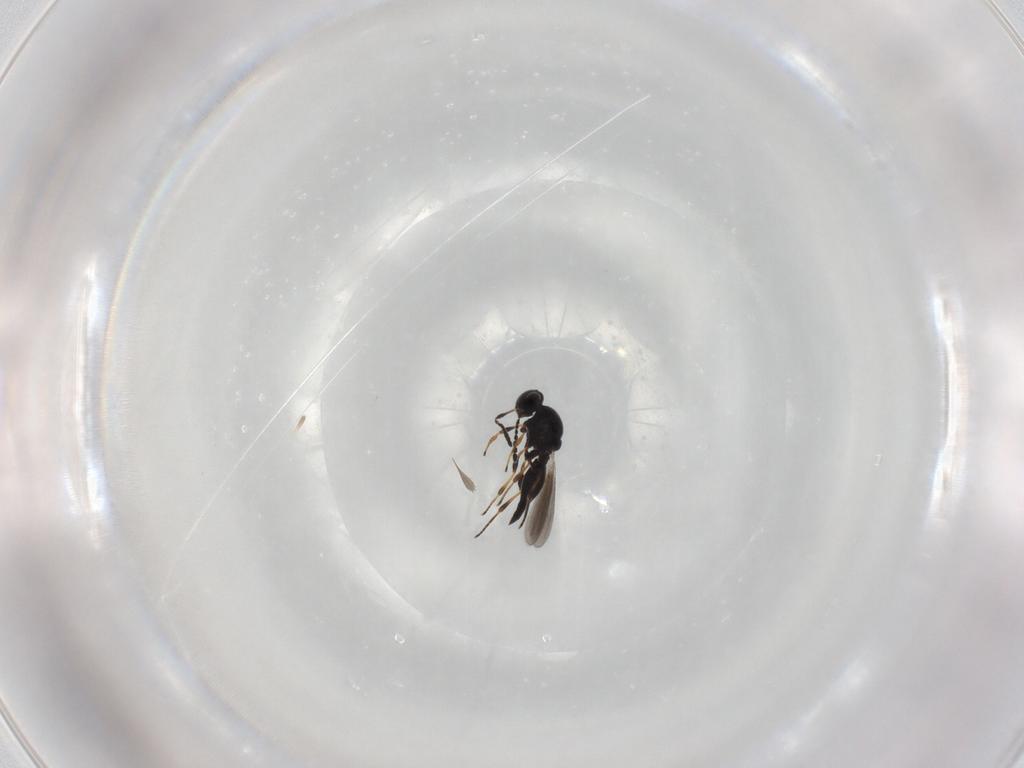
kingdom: Animalia
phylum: Arthropoda
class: Insecta
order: Hymenoptera
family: Platygastridae
